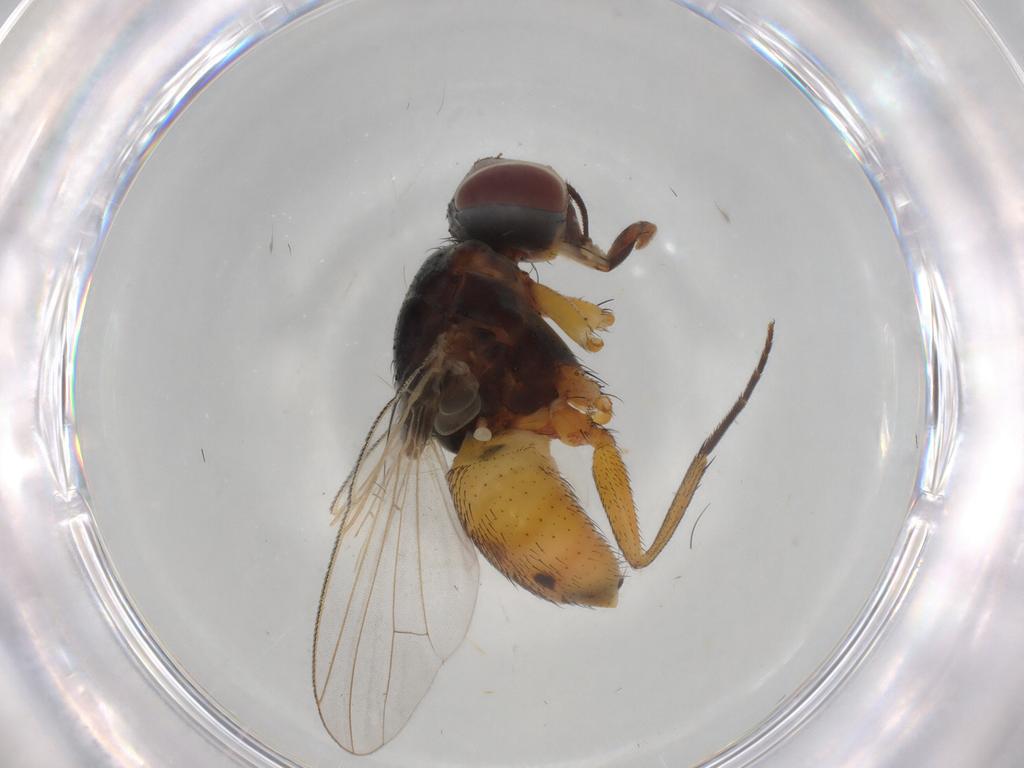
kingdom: Animalia
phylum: Arthropoda
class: Insecta
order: Diptera
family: Muscidae
